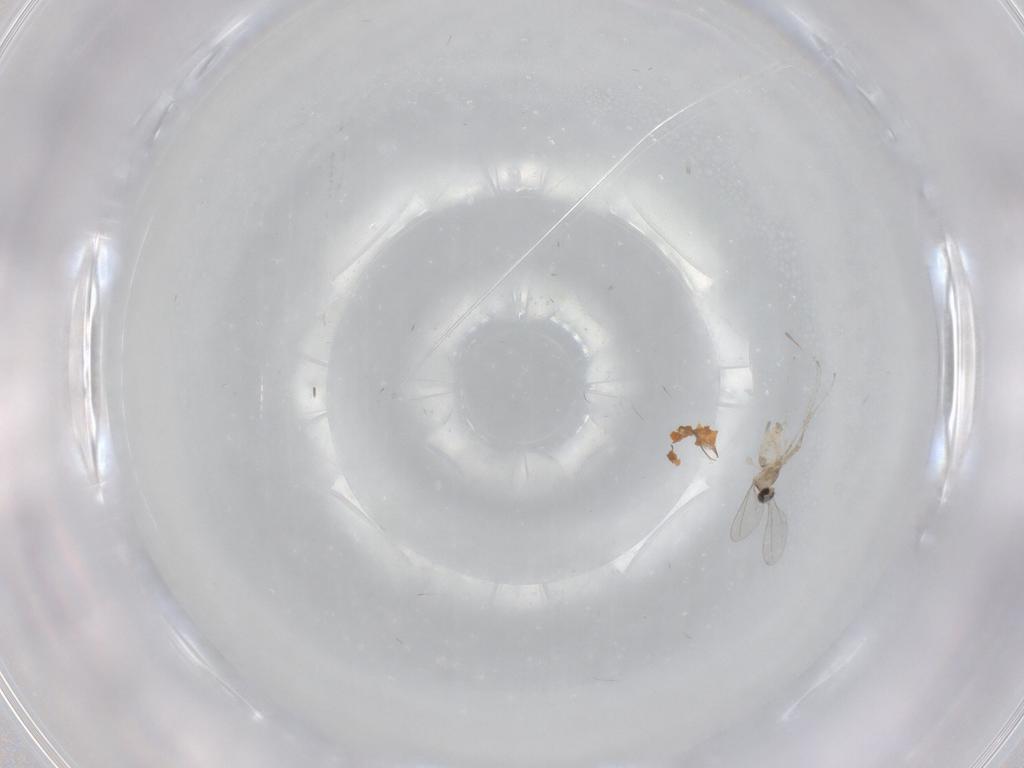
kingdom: Animalia
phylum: Arthropoda
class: Insecta
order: Diptera
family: Cecidomyiidae
